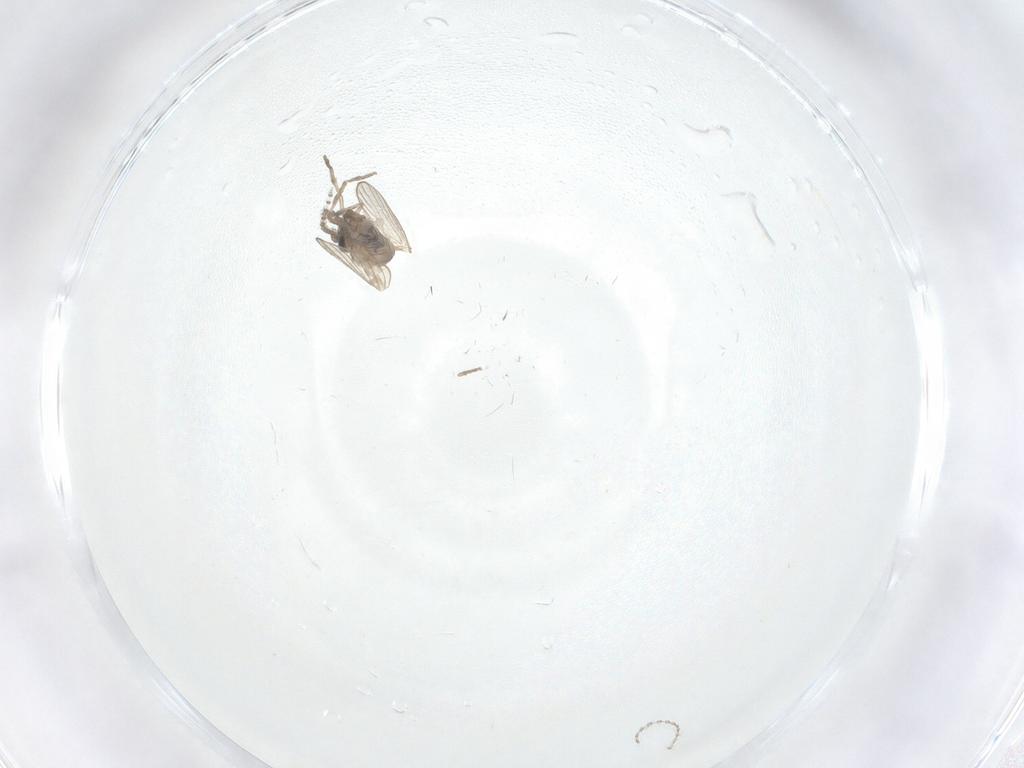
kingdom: Animalia
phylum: Arthropoda
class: Insecta
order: Diptera
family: Psychodidae
